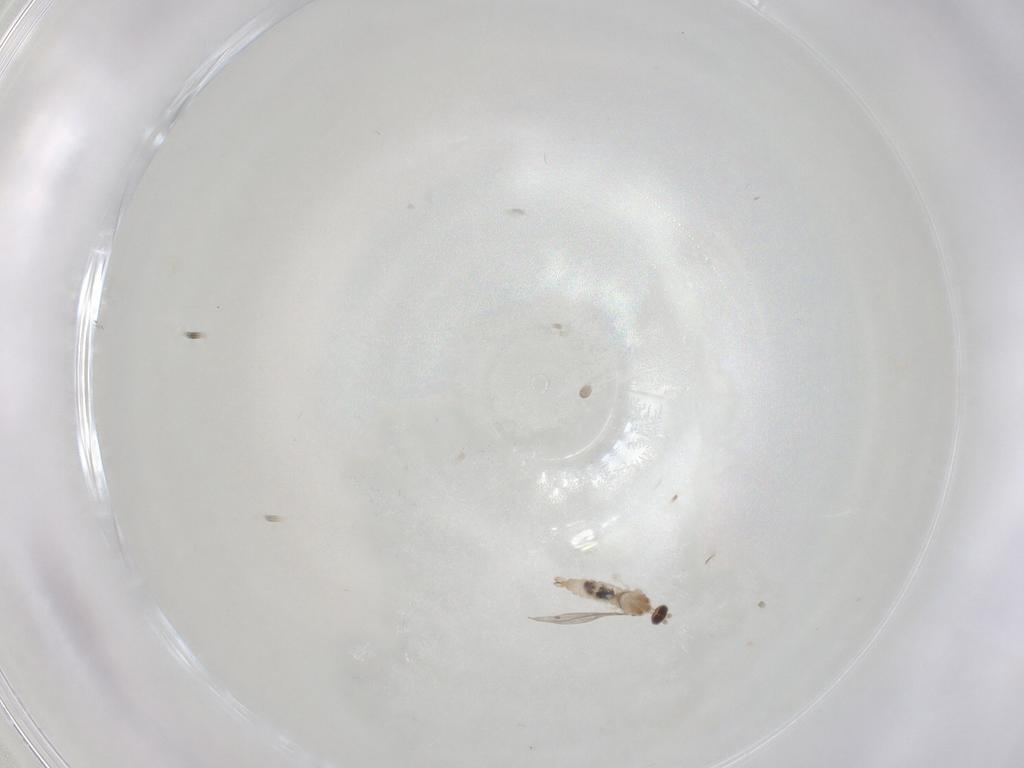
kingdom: Animalia
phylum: Arthropoda
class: Insecta
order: Diptera
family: Cecidomyiidae
